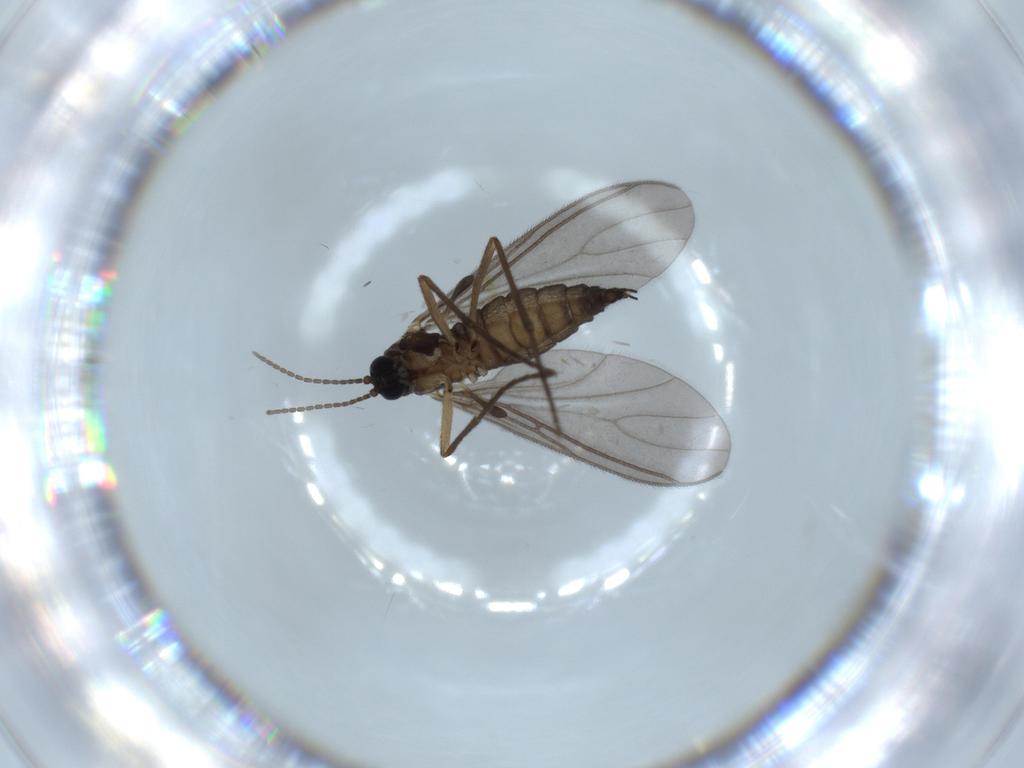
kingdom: Animalia
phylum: Arthropoda
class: Insecta
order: Diptera
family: Sciaridae
